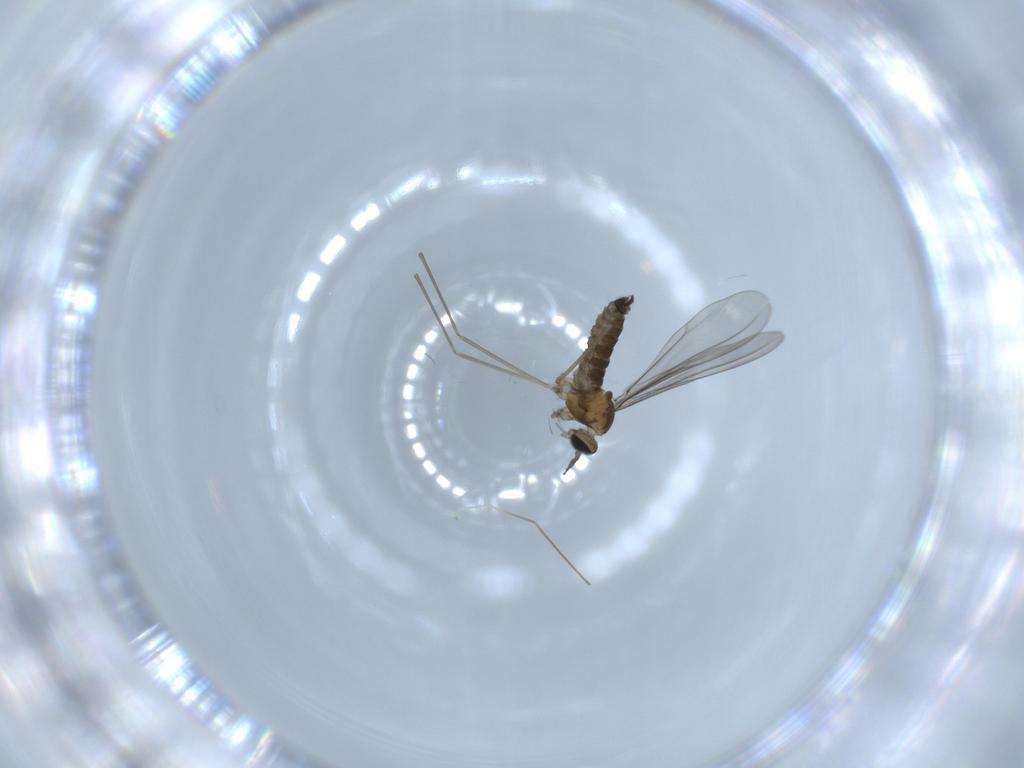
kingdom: Animalia
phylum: Arthropoda
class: Insecta
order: Diptera
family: Cecidomyiidae
